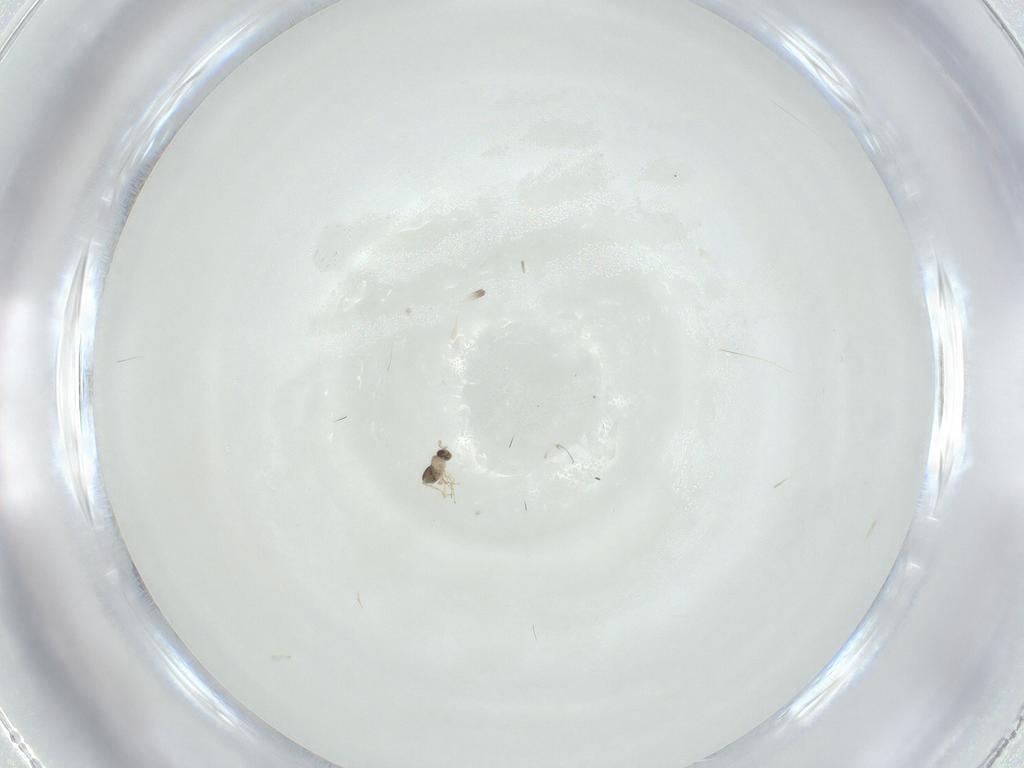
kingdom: Animalia
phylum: Arthropoda
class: Insecta
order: Hymenoptera
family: Mymaridae
